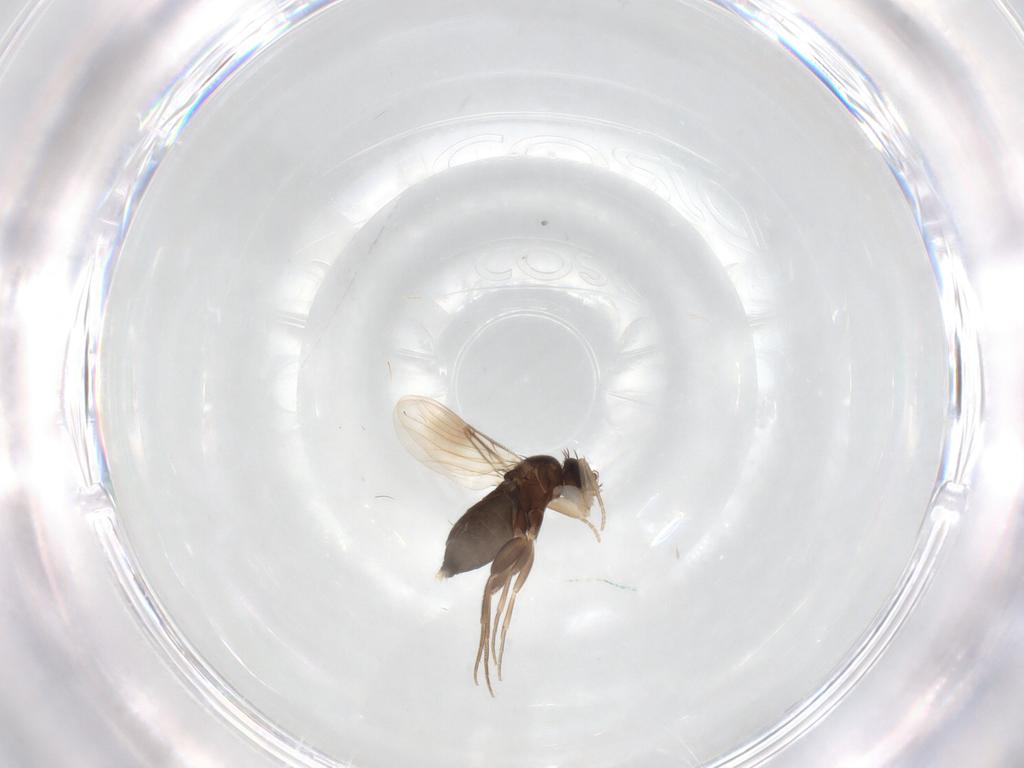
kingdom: Animalia
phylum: Arthropoda
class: Insecta
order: Diptera
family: Phoridae
